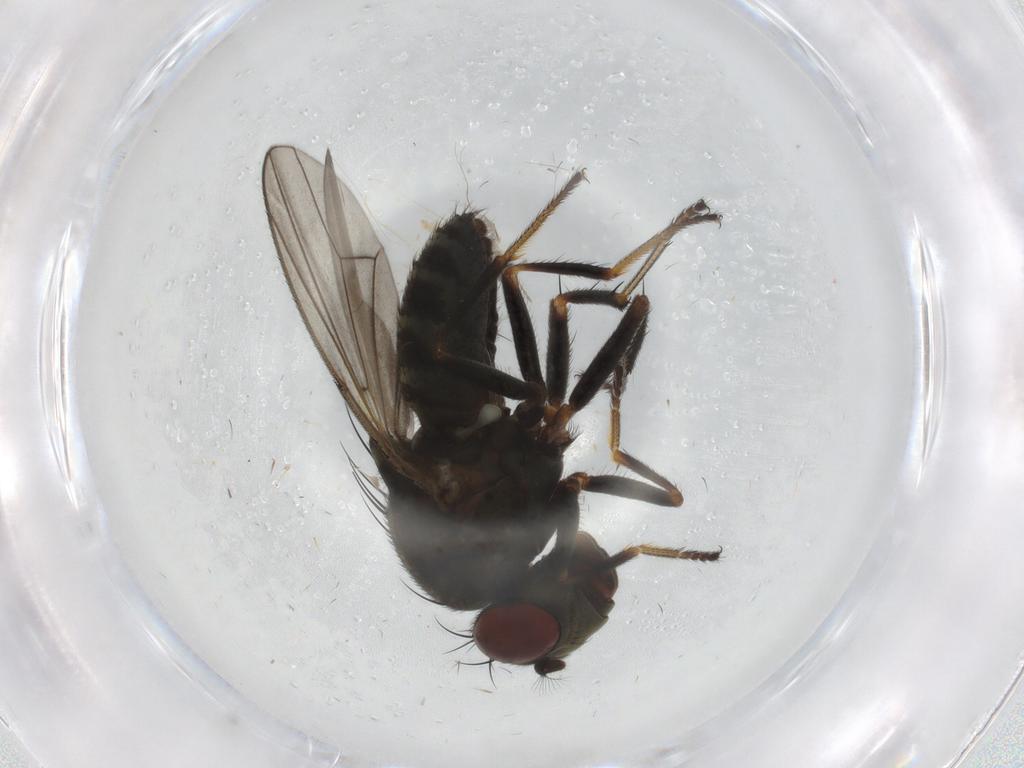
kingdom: Animalia
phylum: Arthropoda
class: Insecta
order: Diptera
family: Ephydridae
